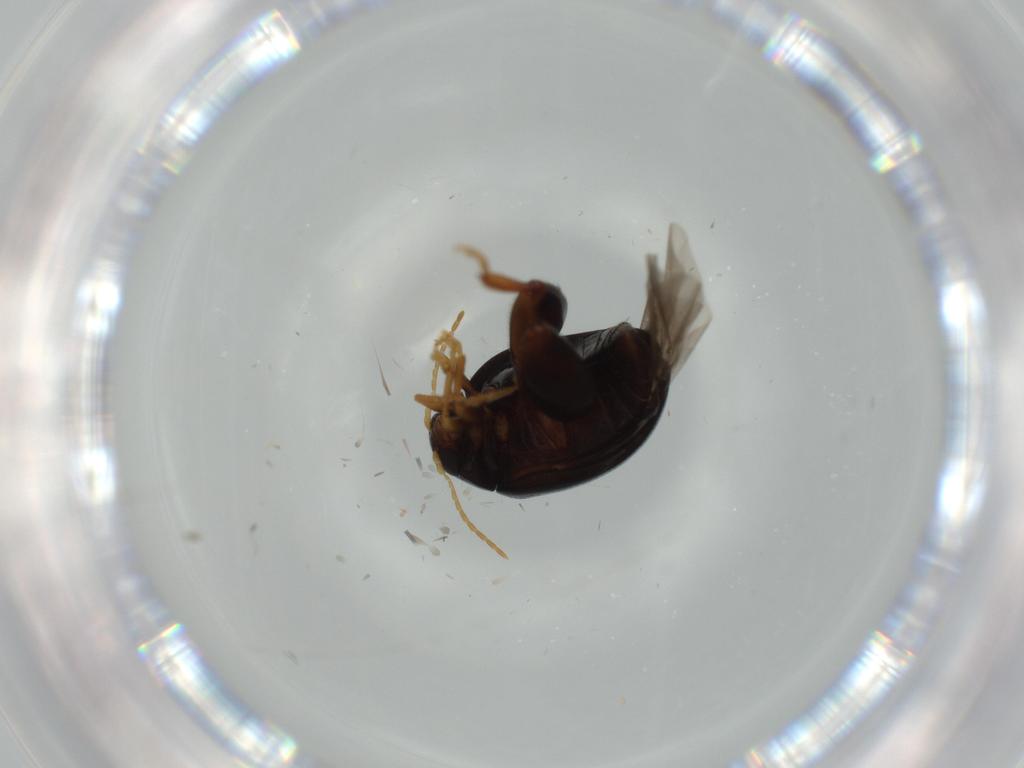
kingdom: Animalia
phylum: Arthropoda
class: Insecta
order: Coleoptera
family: Chrysomelidae
